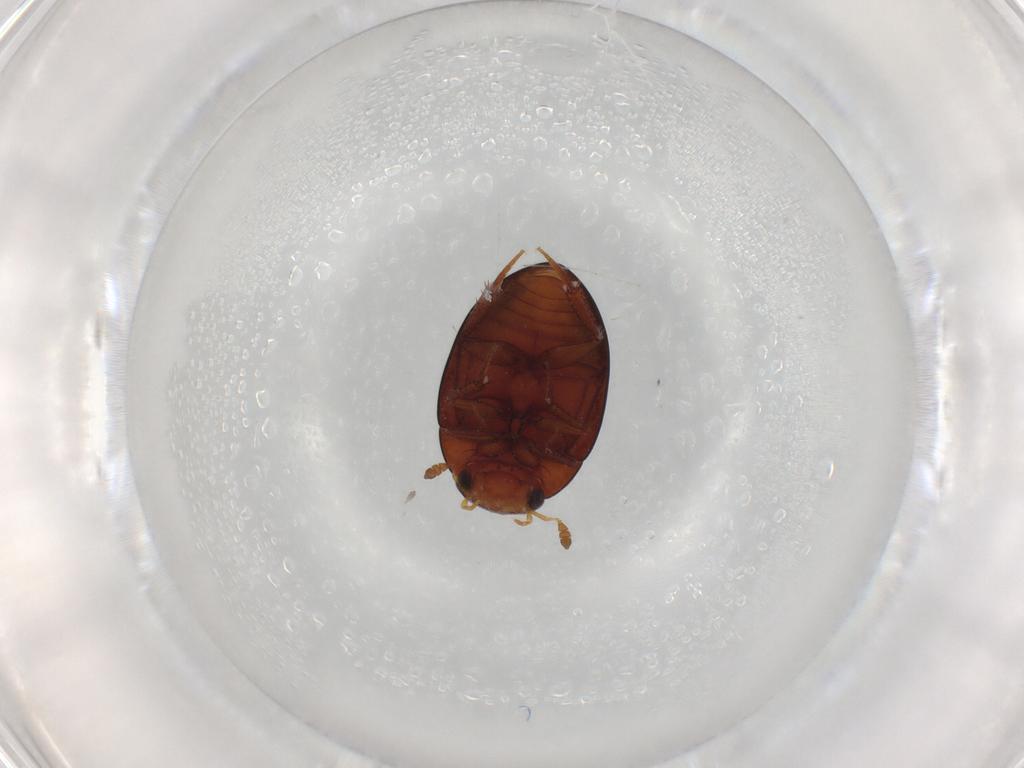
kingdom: Animalia
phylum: Arthropoda
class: Insecta
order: Coleoptera
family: Hydrophilidae
